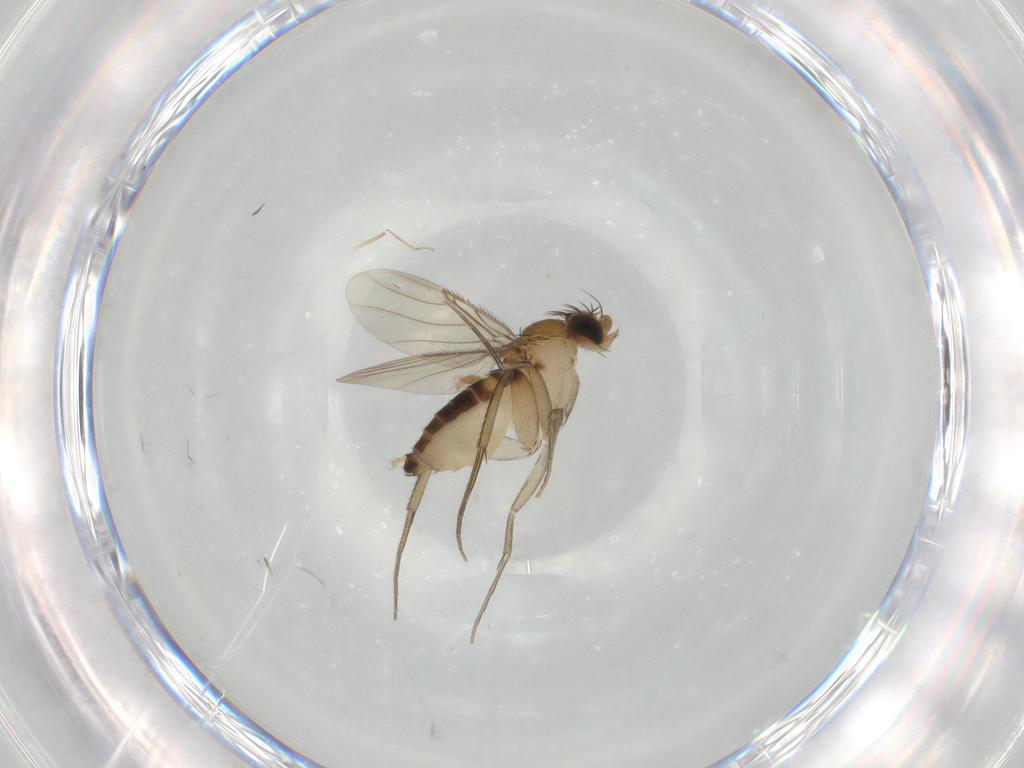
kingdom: Animalia
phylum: Arthropoda
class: Insecta
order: Diptera
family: Phoridae
